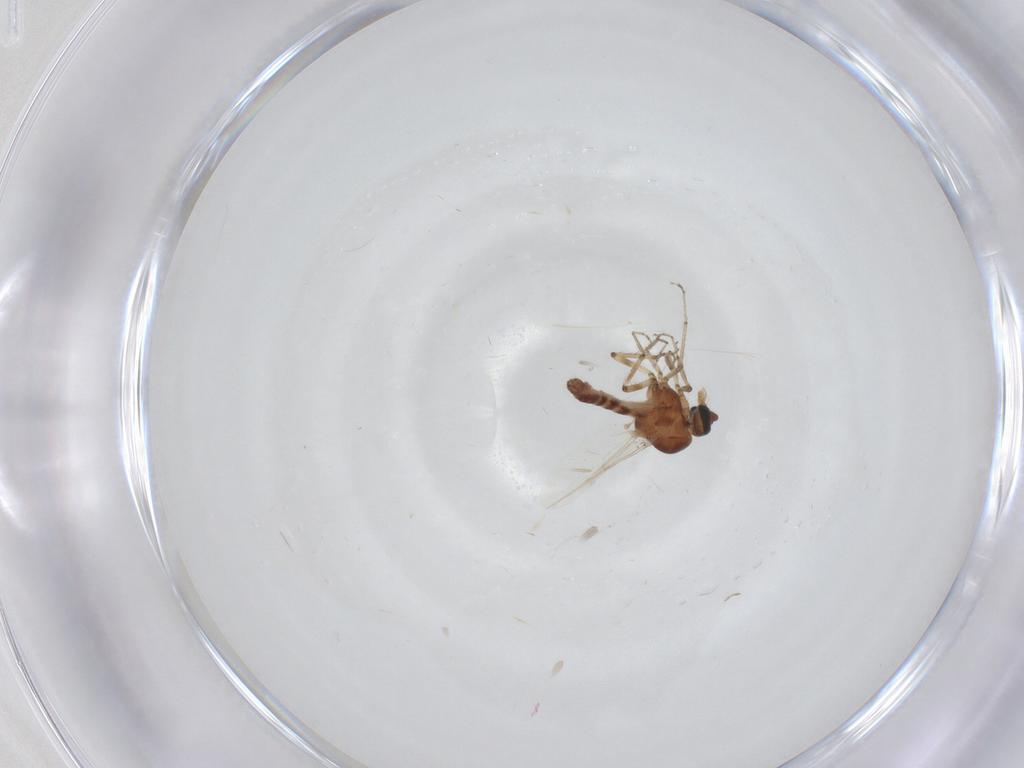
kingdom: Animalia
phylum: Arthropoda
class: Insecta
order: Diptera
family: Ceratopogonidae
